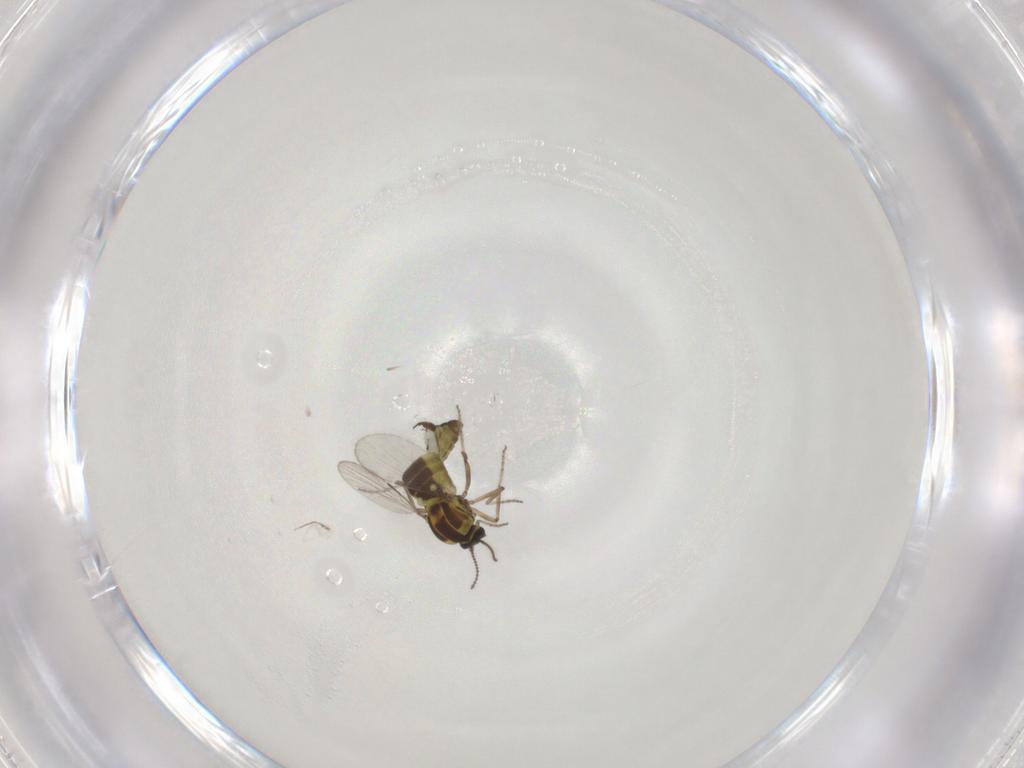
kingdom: Animalia
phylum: Arthropoda
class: Insecta
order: Diptera
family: Ceratopogonidae
